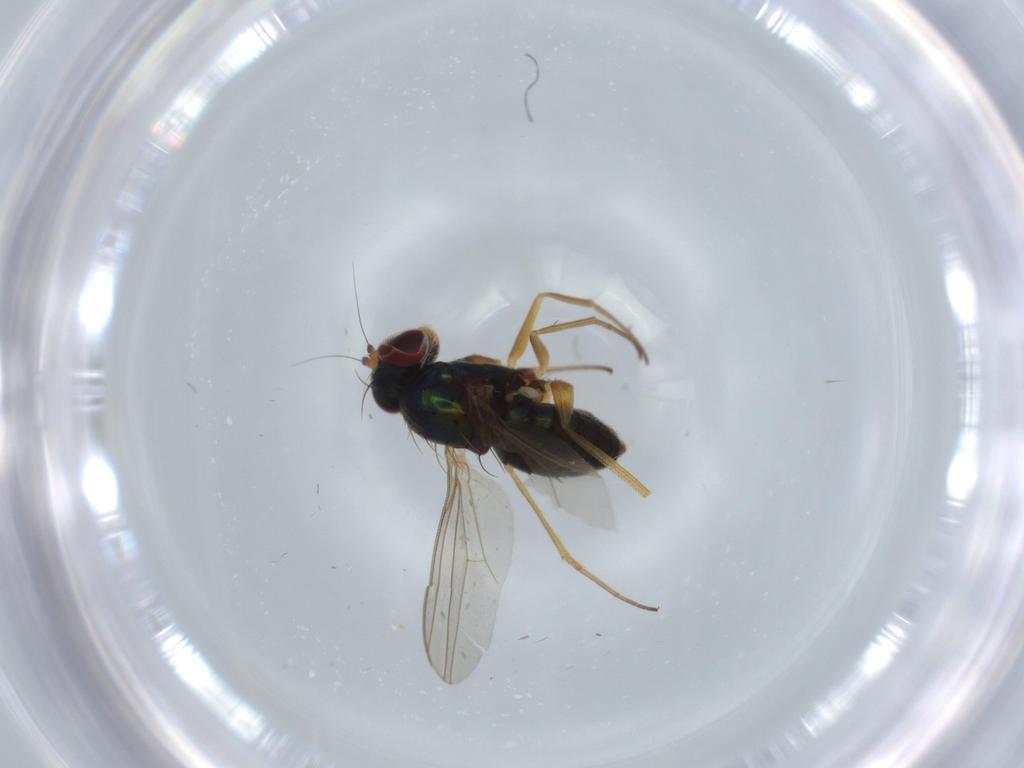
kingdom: Animalia
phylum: Arthropoda
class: Insecta
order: Diptera
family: Dolichopodidae
